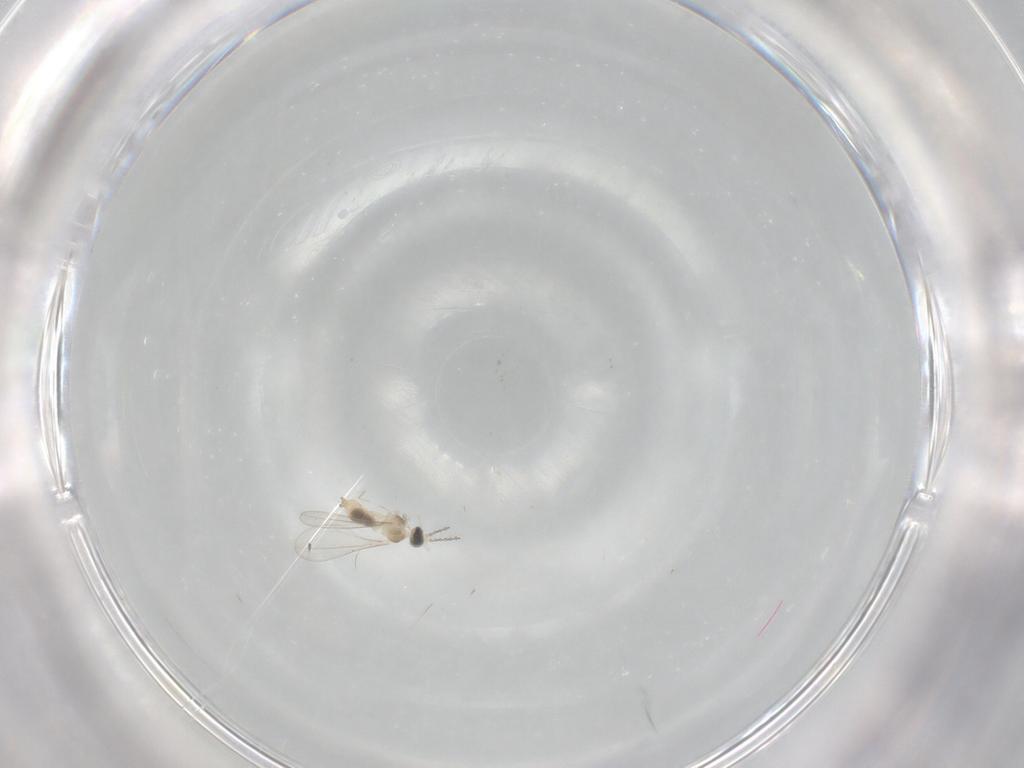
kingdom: Animalia
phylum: Arthropoda
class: Insecta
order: Diptera
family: Cecidomyiidae
